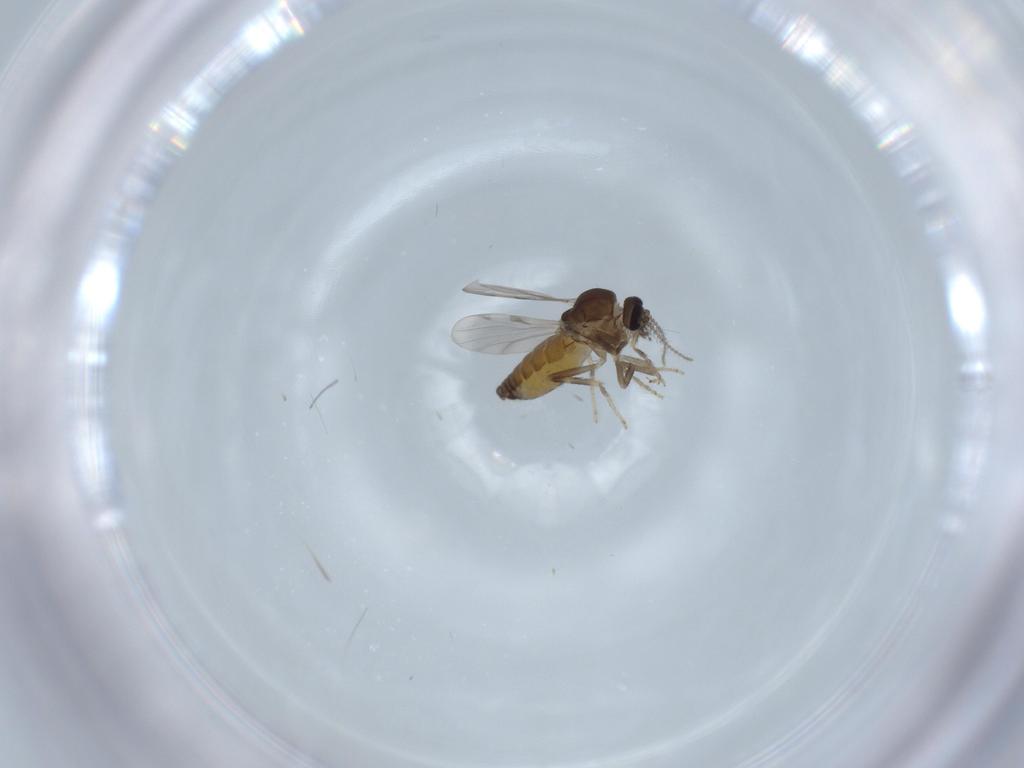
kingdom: Animalia
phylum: Arthropoda
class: Insecta
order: Diptera
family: Ceratopogonidae
